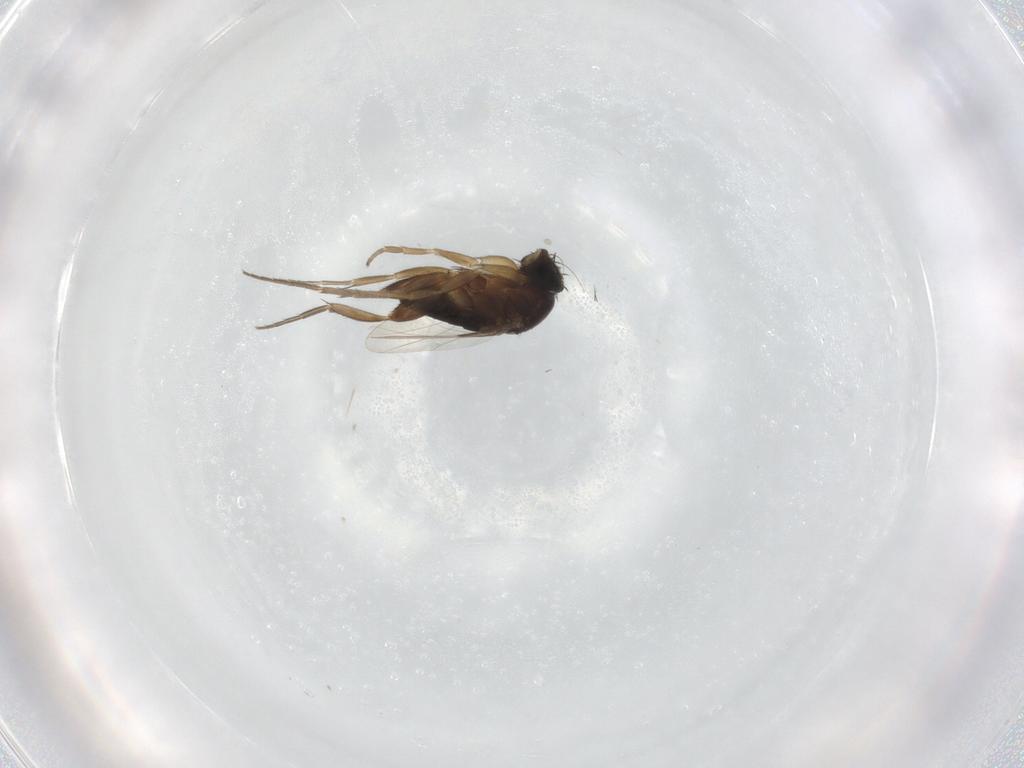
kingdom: Animalia
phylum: Arthropoda
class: Insecta
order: Diptera
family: Phoridae
